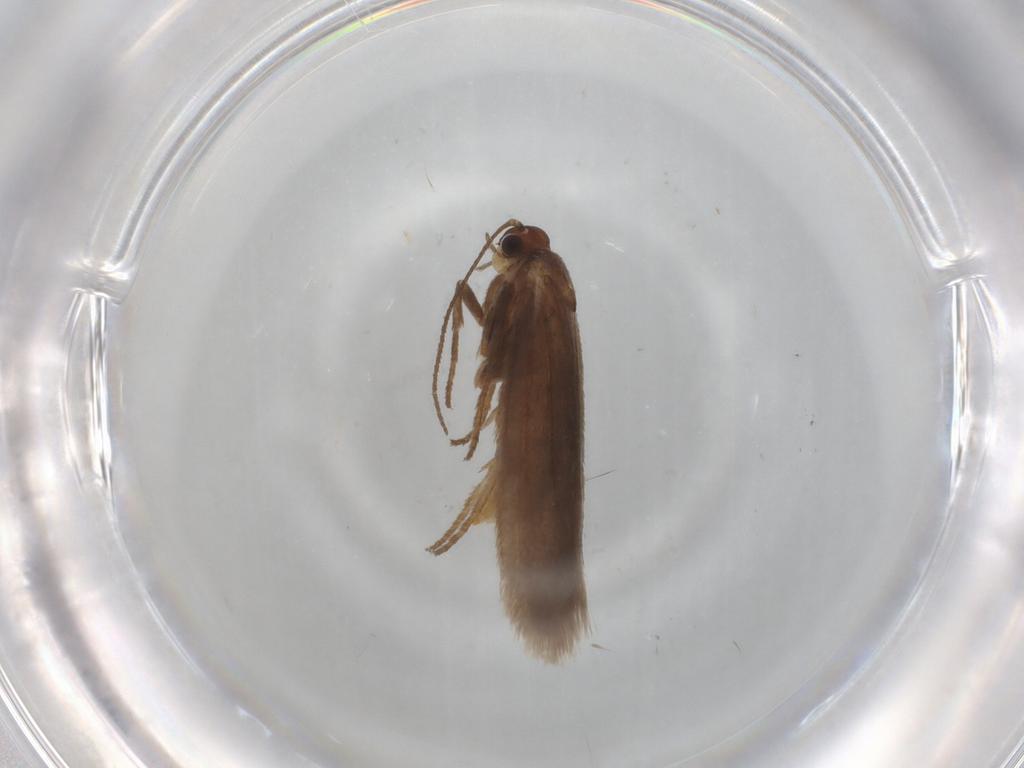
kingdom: Animalia
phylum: Arthropoda
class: Insecta
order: Lepidoptera
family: Limacodidae
